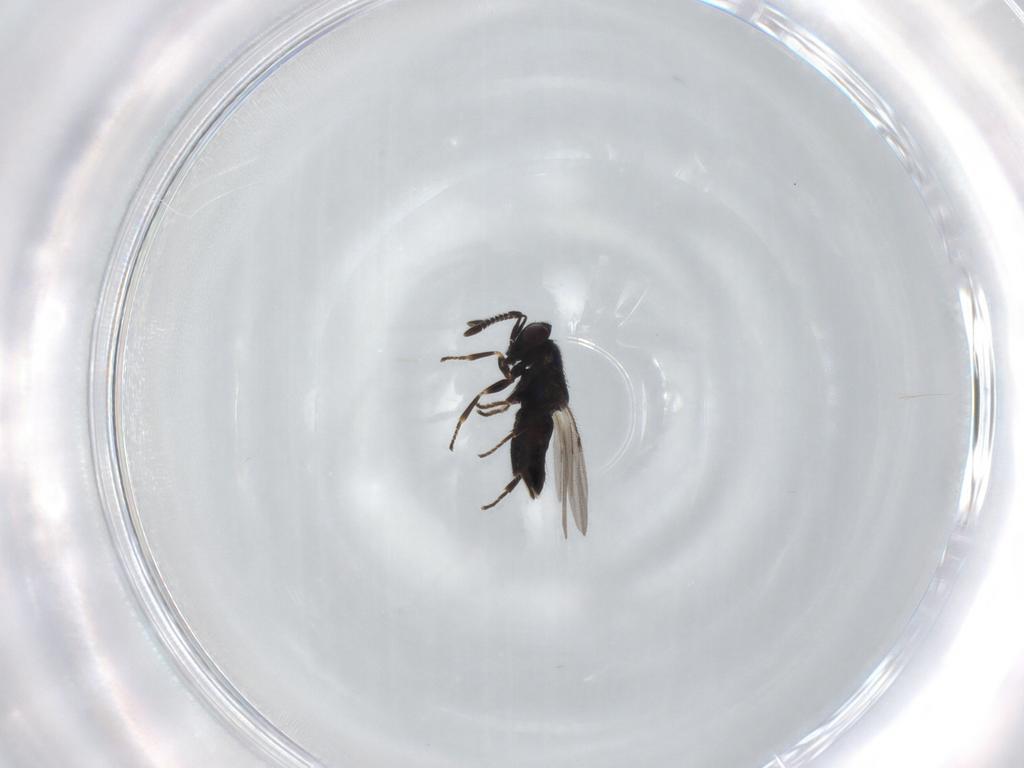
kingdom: Animalia
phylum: Arthropoda
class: Insecta
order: Hymenoptera
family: Encyrtidae
